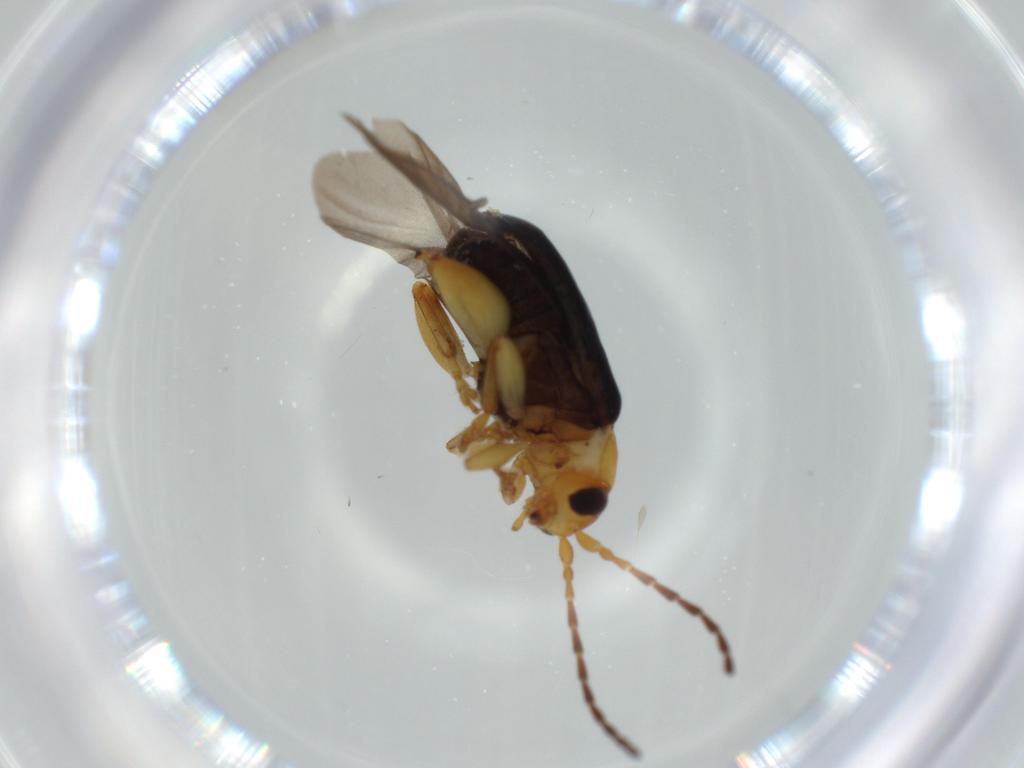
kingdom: Animalia
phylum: Arthropoda
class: Insecta
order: Coleoptera
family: Chrysomelidae
